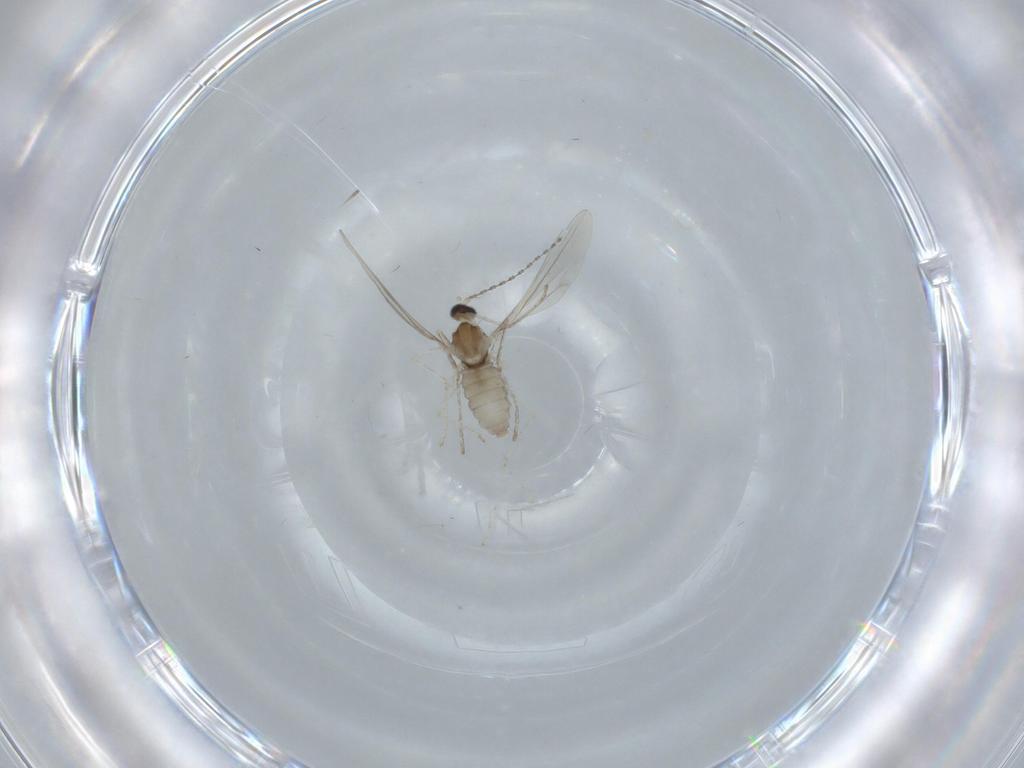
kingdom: Animalia
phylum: Arthropoda
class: Insecta
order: Diptera
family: Cecidomyiidae
